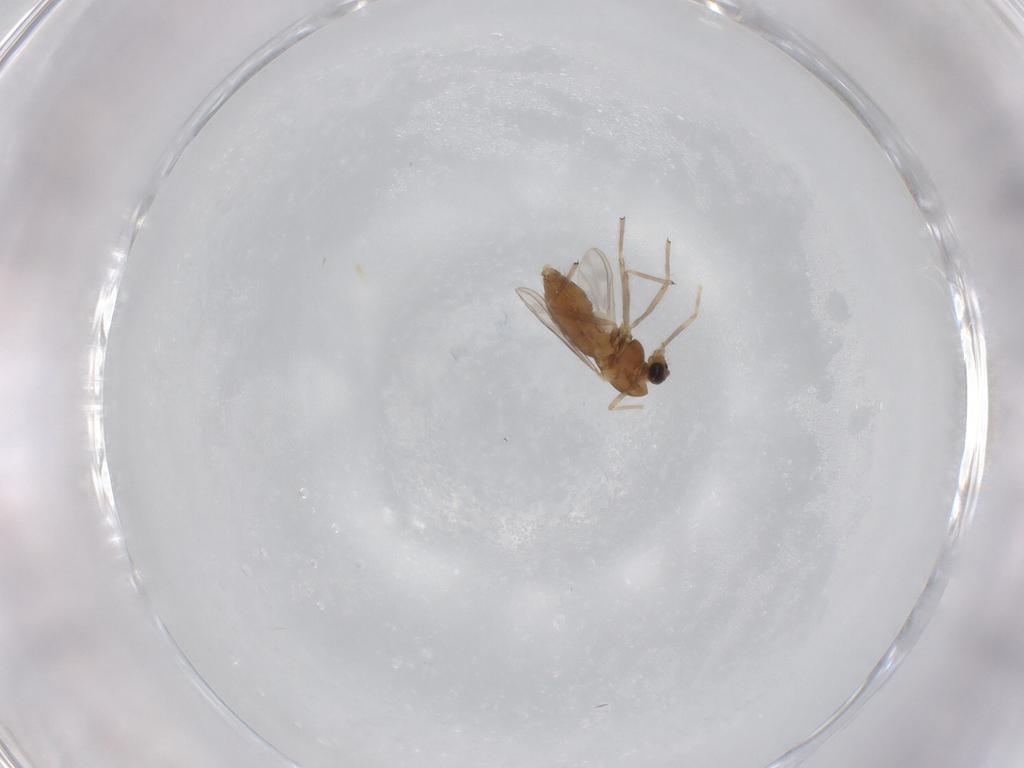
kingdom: Animalia
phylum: Arthropoda
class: Insecta
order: Diptera
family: Chironomidae
